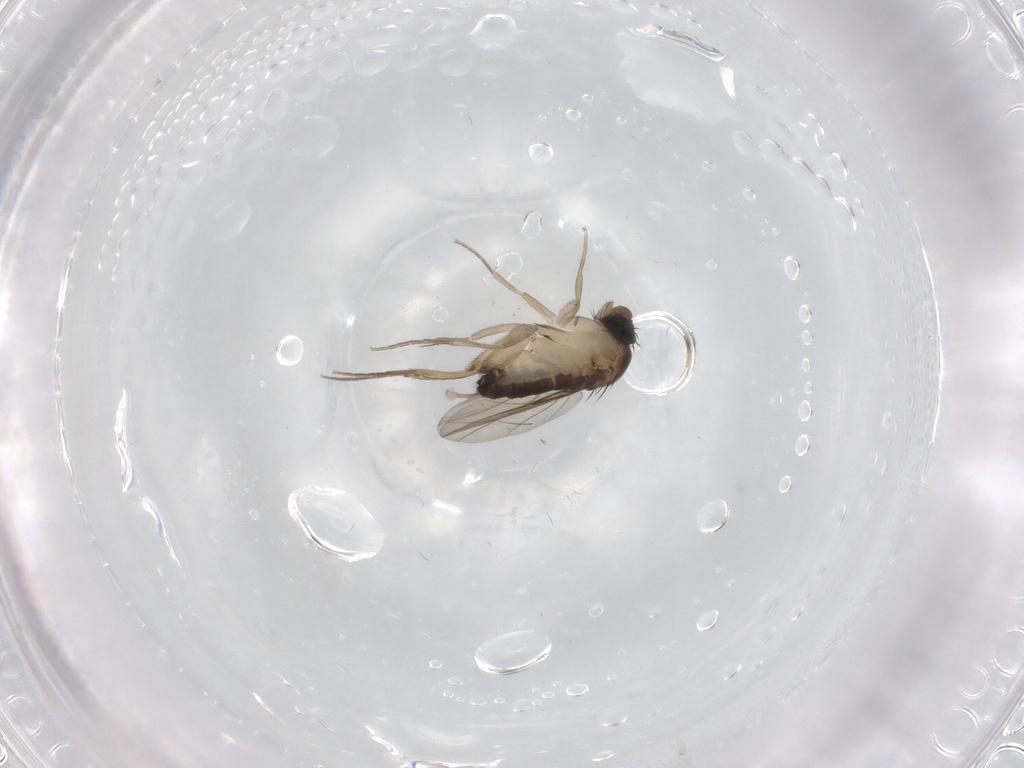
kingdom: Animalia
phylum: Arthropoda
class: Insecta
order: Diptera
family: Phoridae
